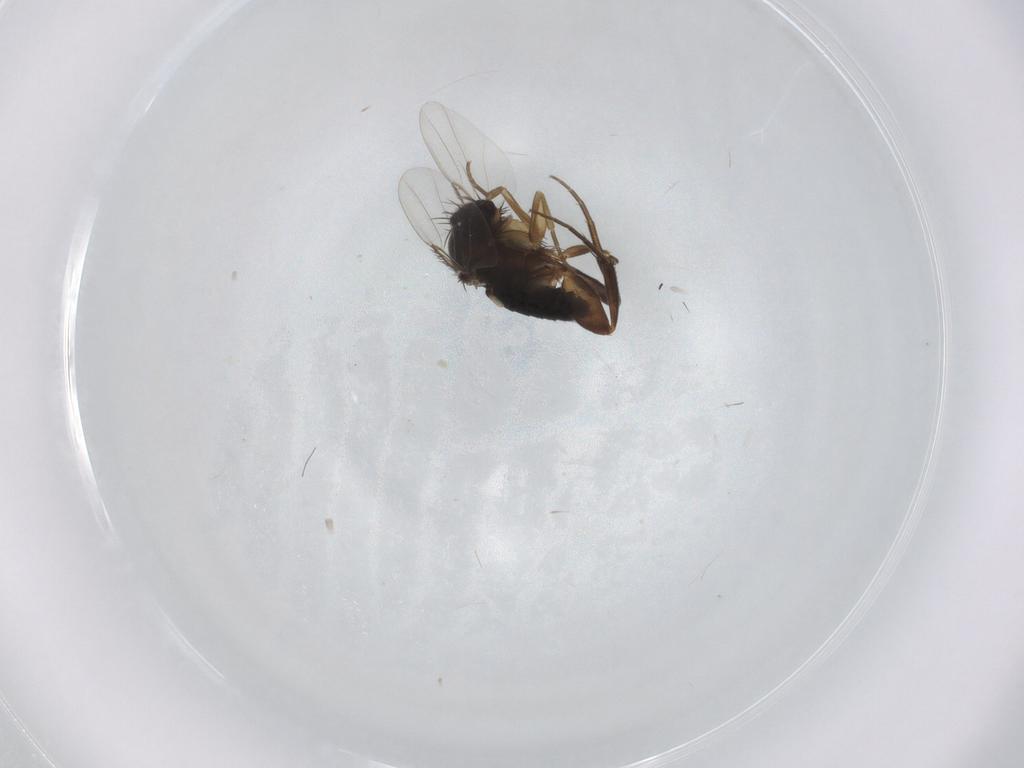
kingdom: Animalia
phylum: Arthropoda
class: Insecta
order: Diptera
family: Phoridae
